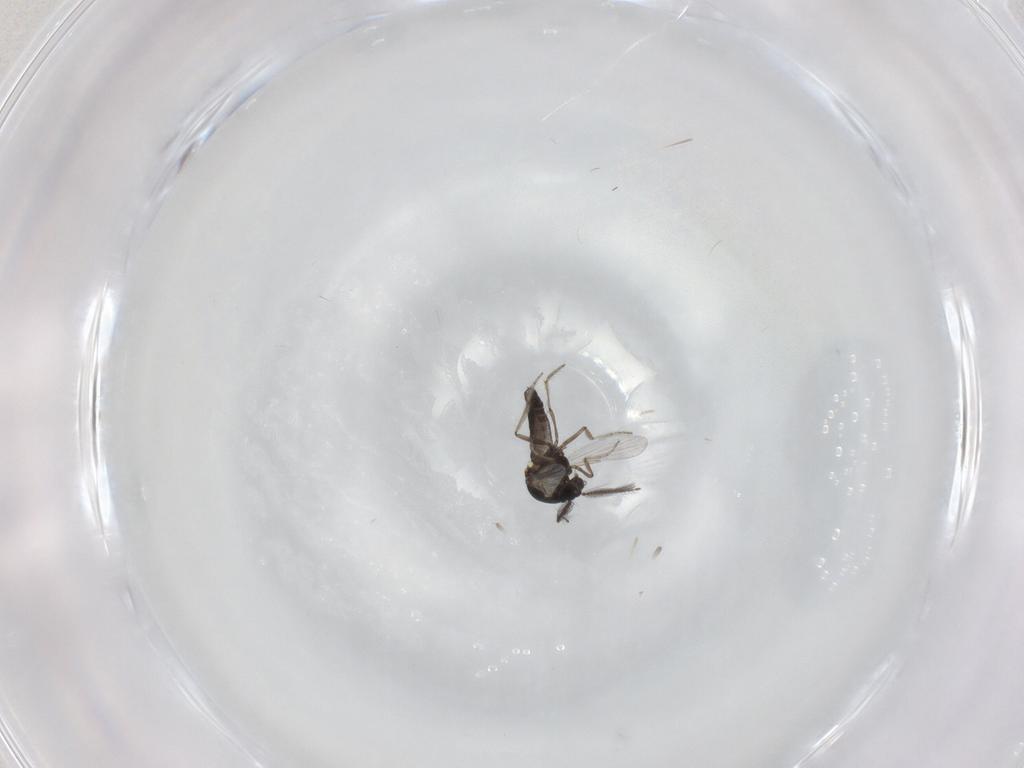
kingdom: Animalia
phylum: Arthropoda
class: Insecta
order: Diptera
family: Ceratopogonidae
